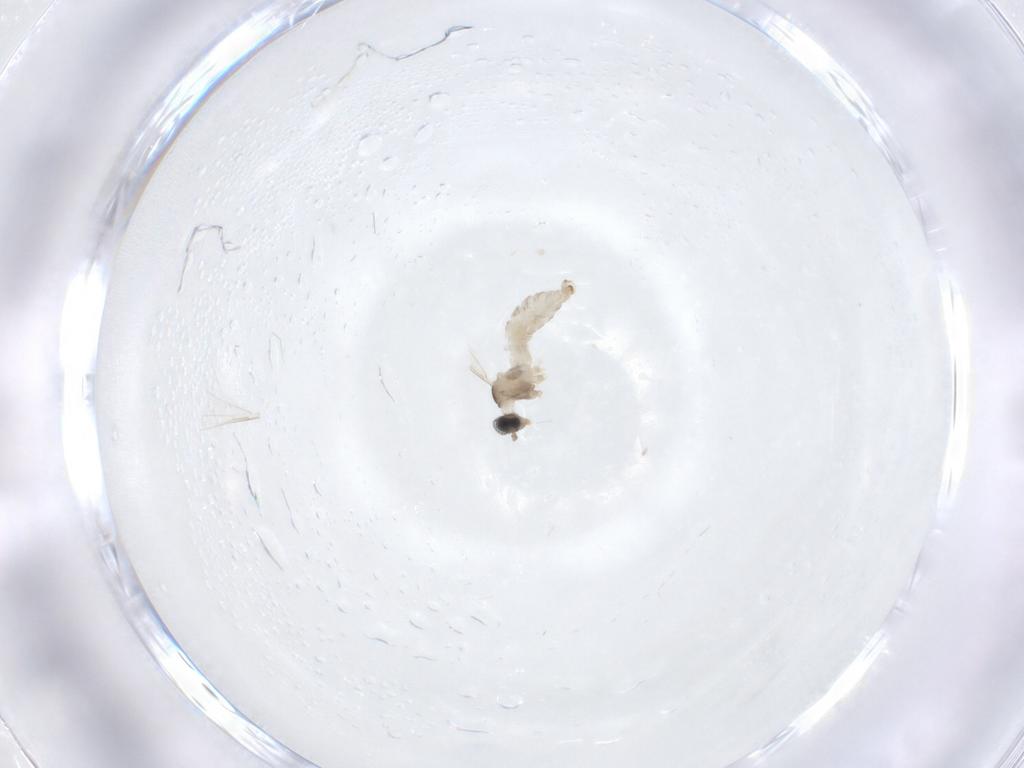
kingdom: Animalia
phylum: Arthropoda
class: Insecta
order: Diptera
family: Cecidomyiidae
